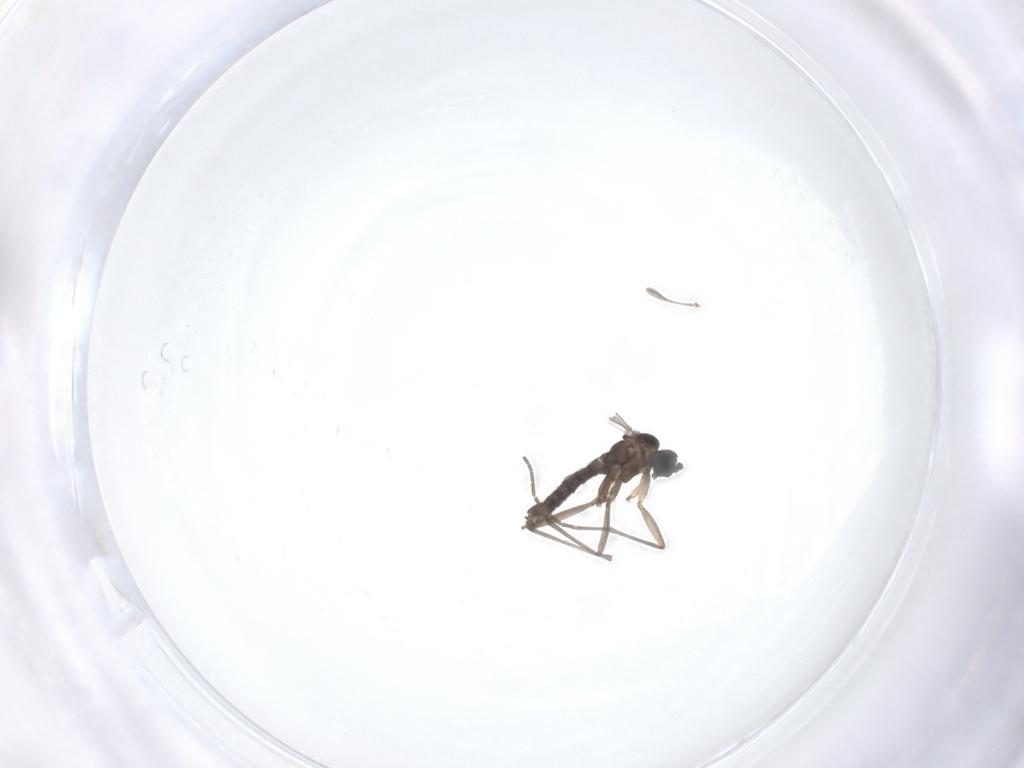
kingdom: Animalia
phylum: Arthropoda
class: Insecta
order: Diptera
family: Sciaridae
